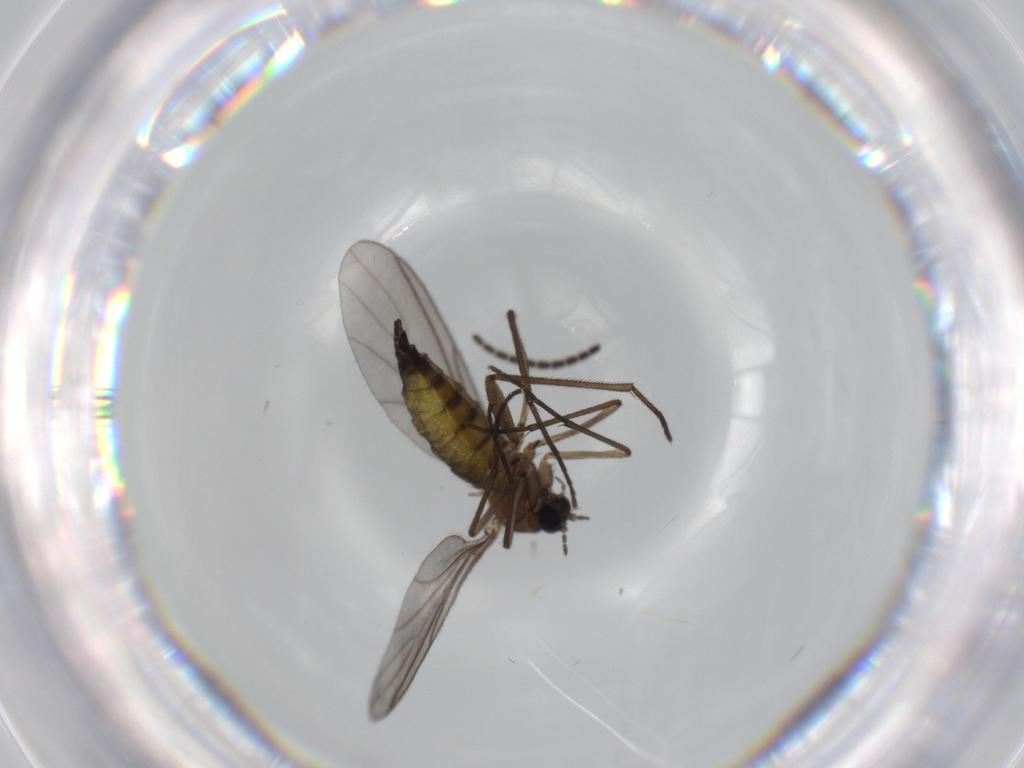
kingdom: Animalia
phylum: Arthropoda
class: Insecta
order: Diptera
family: Sciaridae
